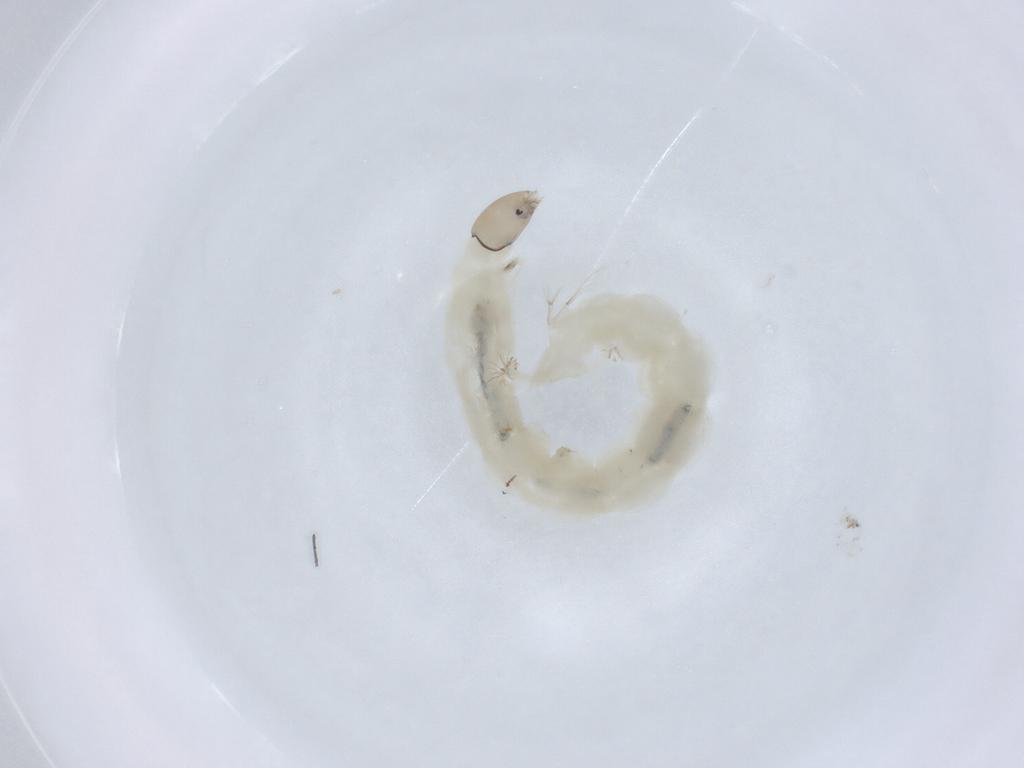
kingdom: Animalia
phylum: Arthropoda
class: Insecta
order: Diptera
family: Chironomidae
